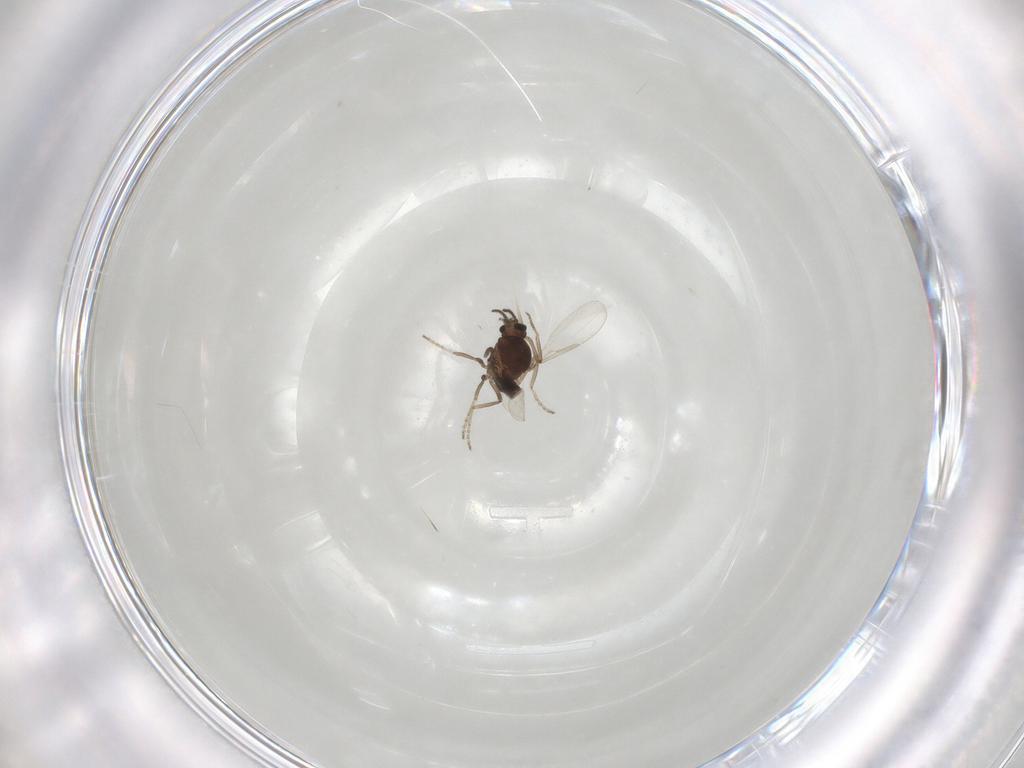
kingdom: Animalia
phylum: Arthropoda
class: Insecta
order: Diptera
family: Ceratopogonidae
